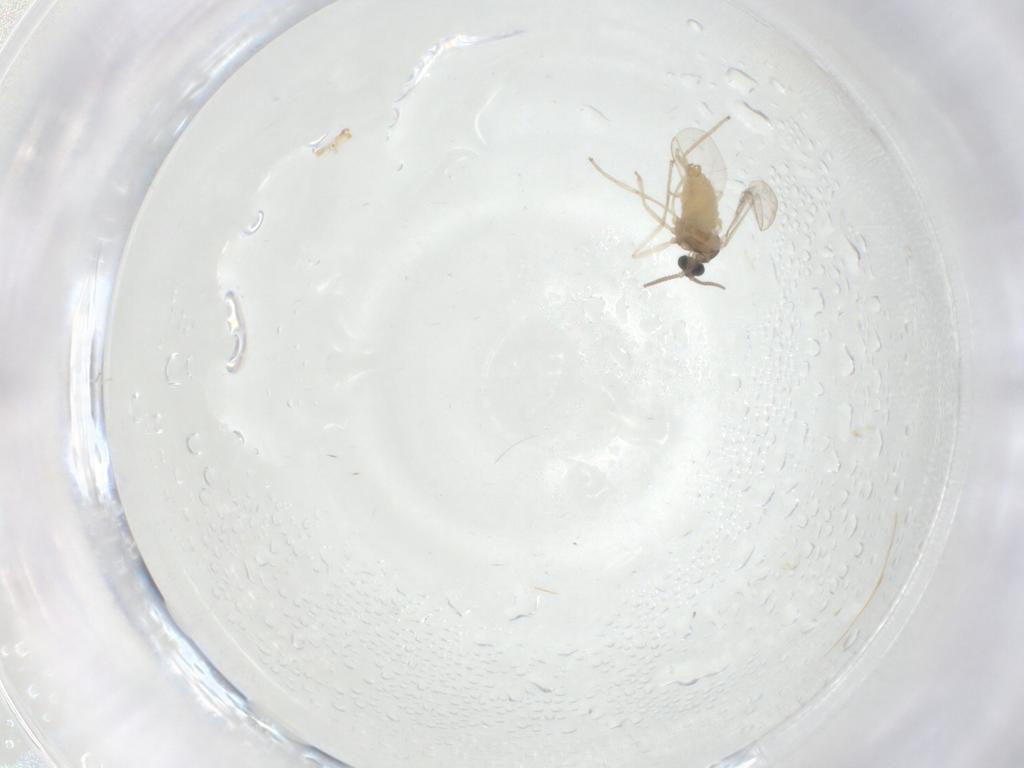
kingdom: Animalia
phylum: Arthropoda
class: Insecta
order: Diptera
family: Cecidomyiidae
